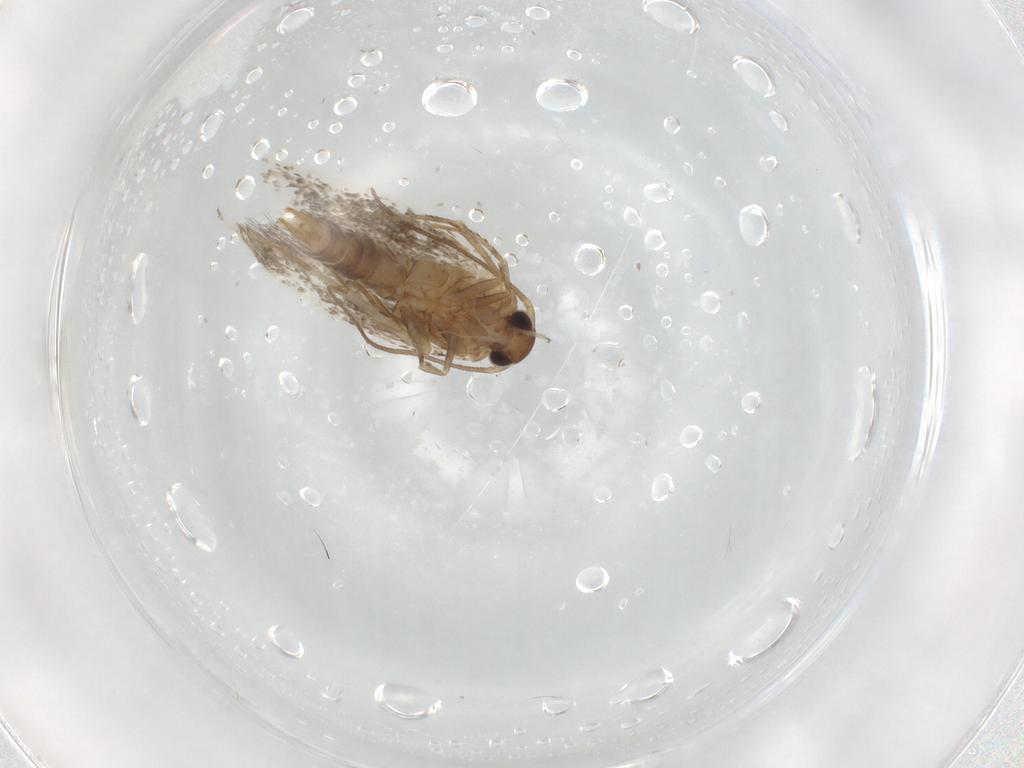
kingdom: Animalia
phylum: Arthropoda
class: Insecta
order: Lepidoptera
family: Elachistidae
